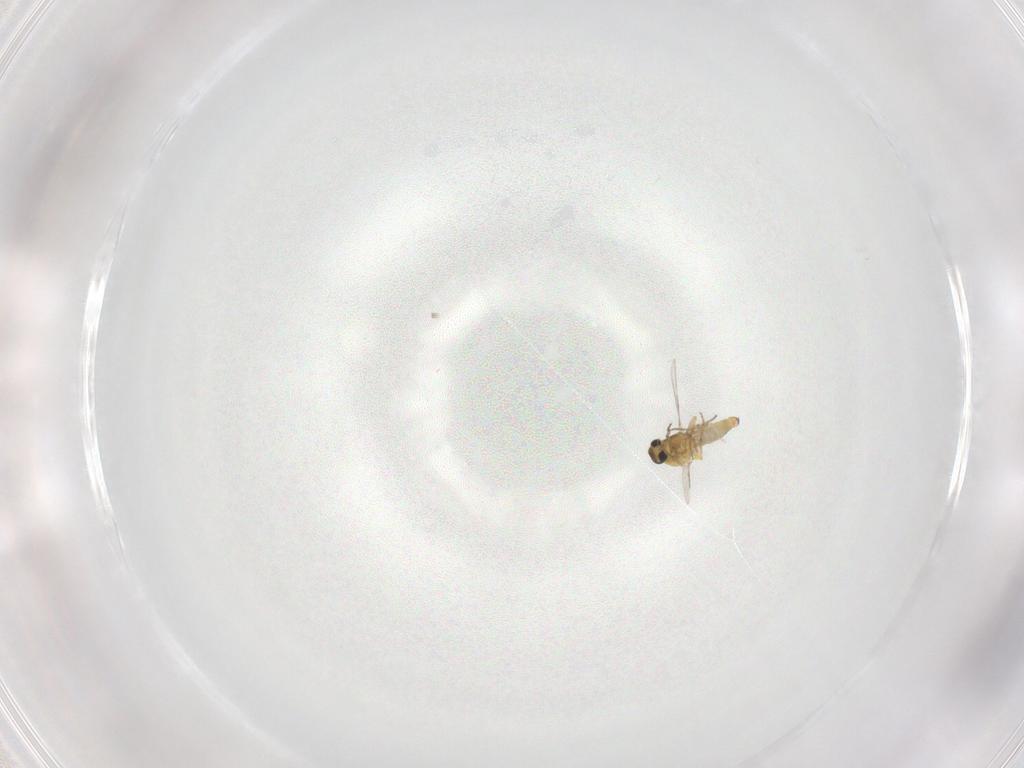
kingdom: Animalia
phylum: Arthropoda
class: Insecta
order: Diptera
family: Ceratopogonidae
